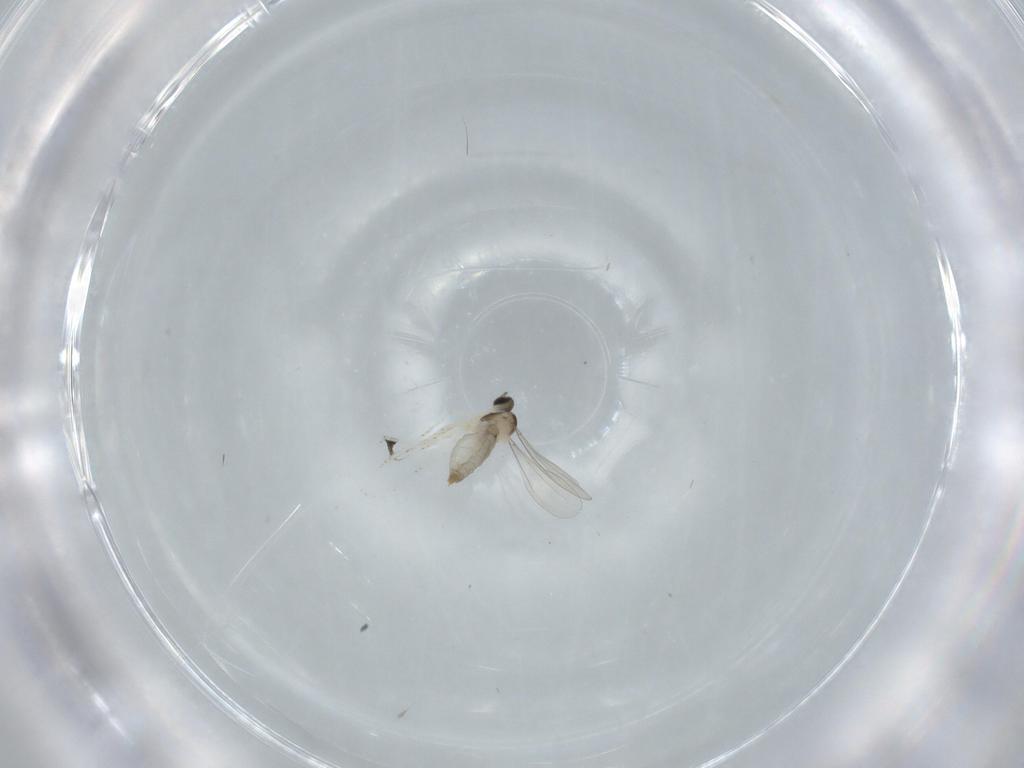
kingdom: Animalia
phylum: Arthropoda
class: Insecta
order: Diptera
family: Psychodidae
